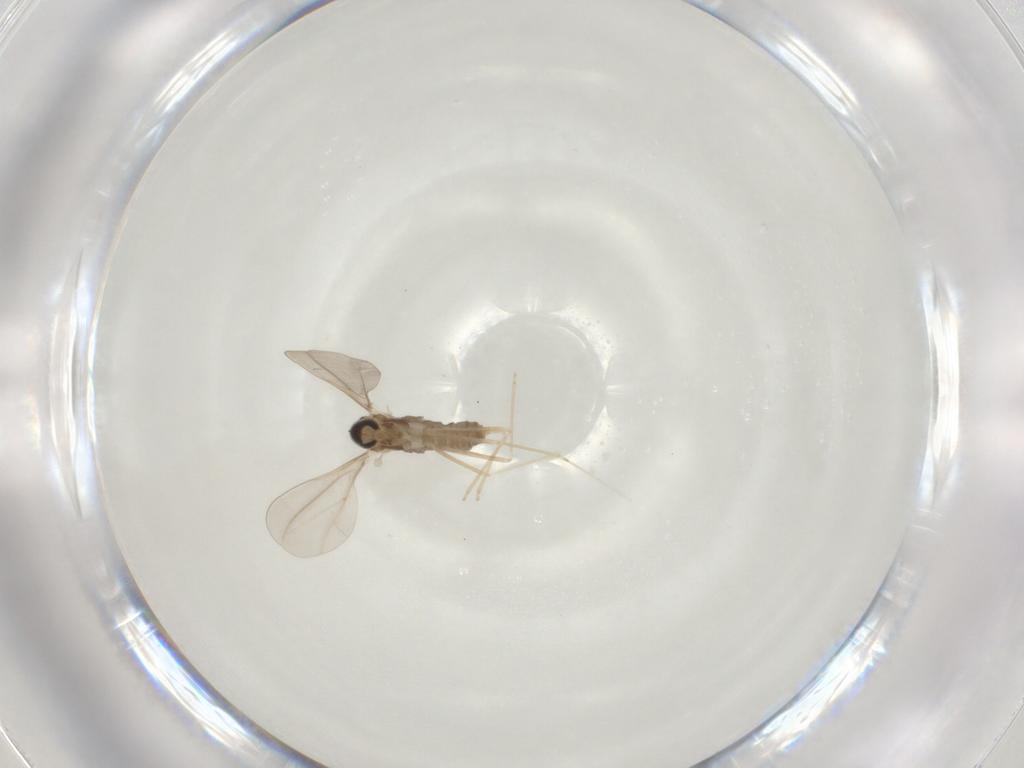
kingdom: Animalia
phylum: Arthropoda
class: Insecta
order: Diptera
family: Cecidomyiidae
